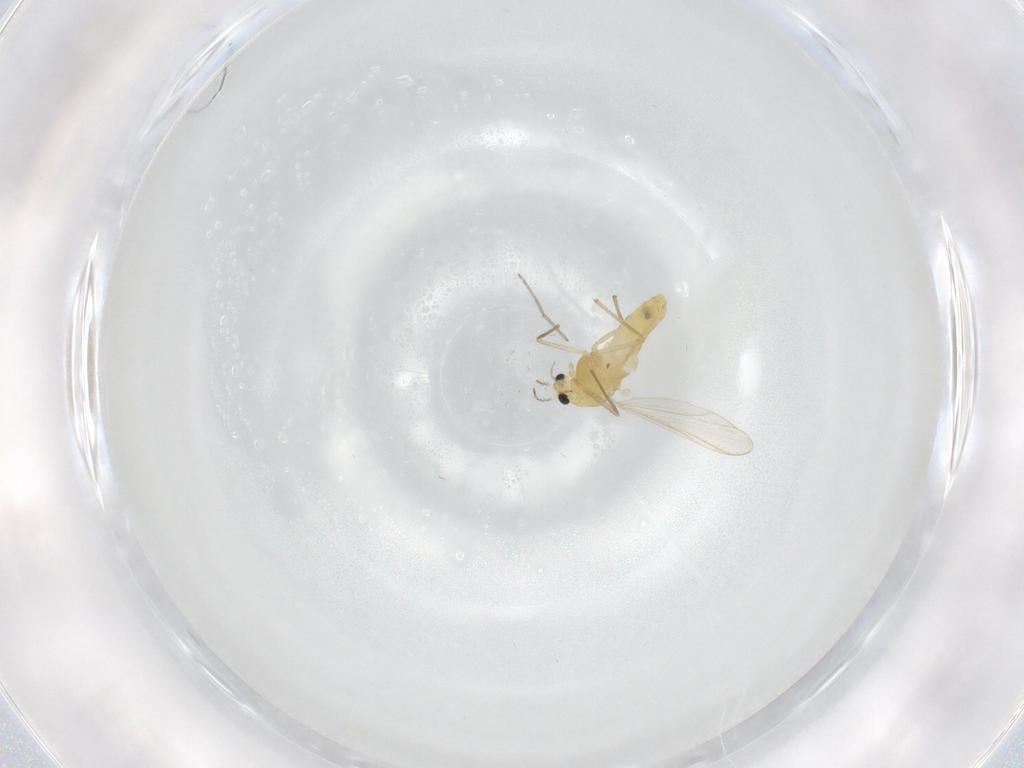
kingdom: Animalia
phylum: Arthropoda
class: Insecta
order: Diptera
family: Chironomidae
